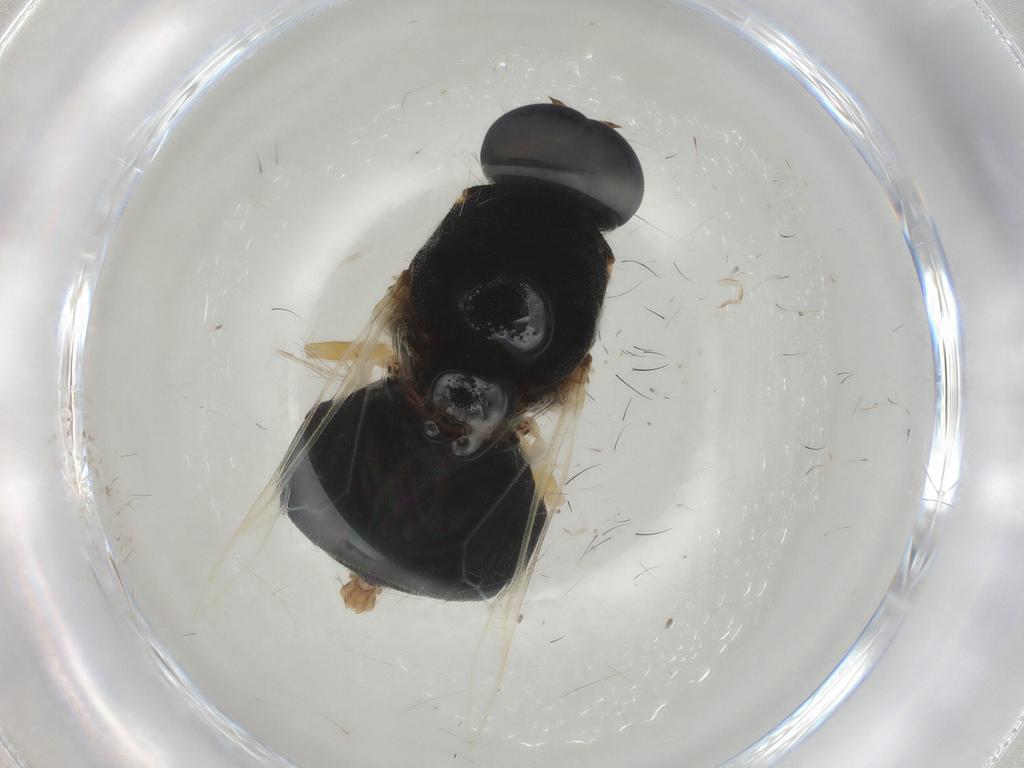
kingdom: Animalia
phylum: Arthropoda
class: Insecta
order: Diptera
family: Chironomidae
